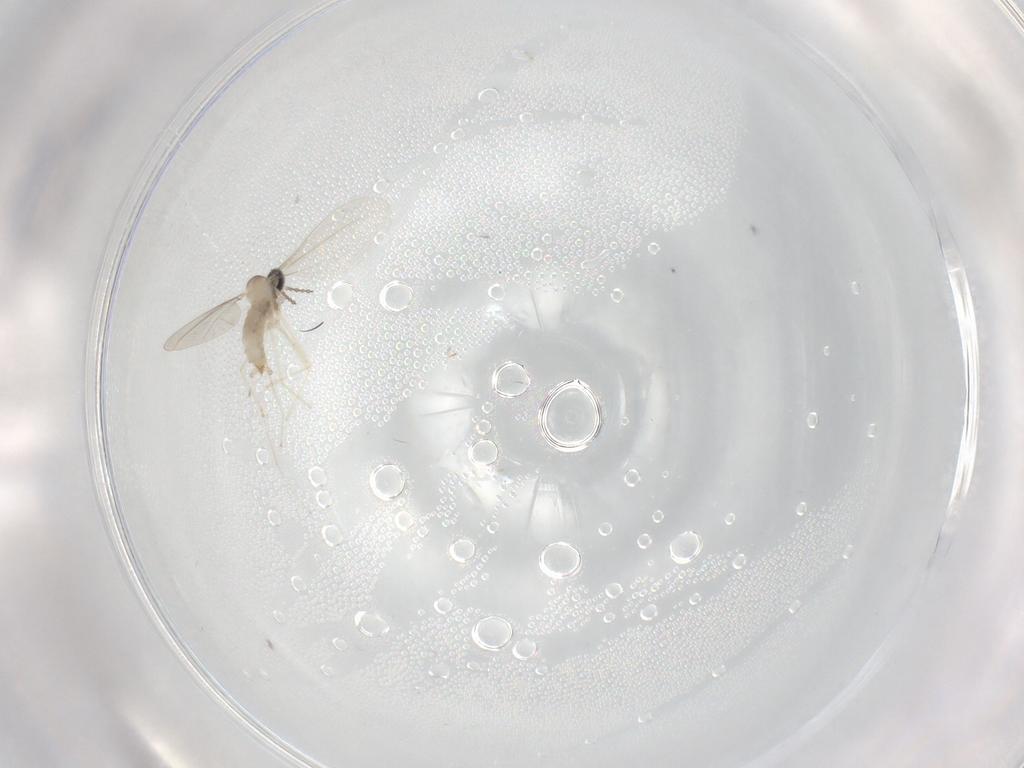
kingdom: Animalia
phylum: Arthropoda
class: Insecta
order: Diptera
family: Cecidomyiidae
